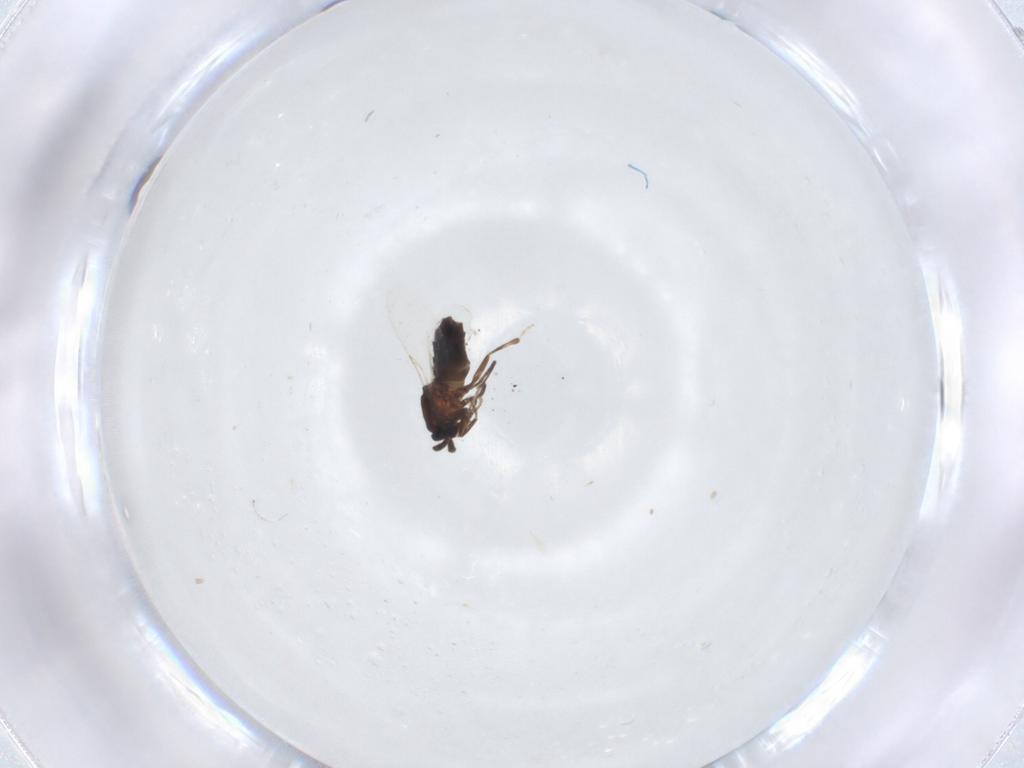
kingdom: Animalia
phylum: Arthropoda
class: Insecta
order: Diptera
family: Scatopsidae
